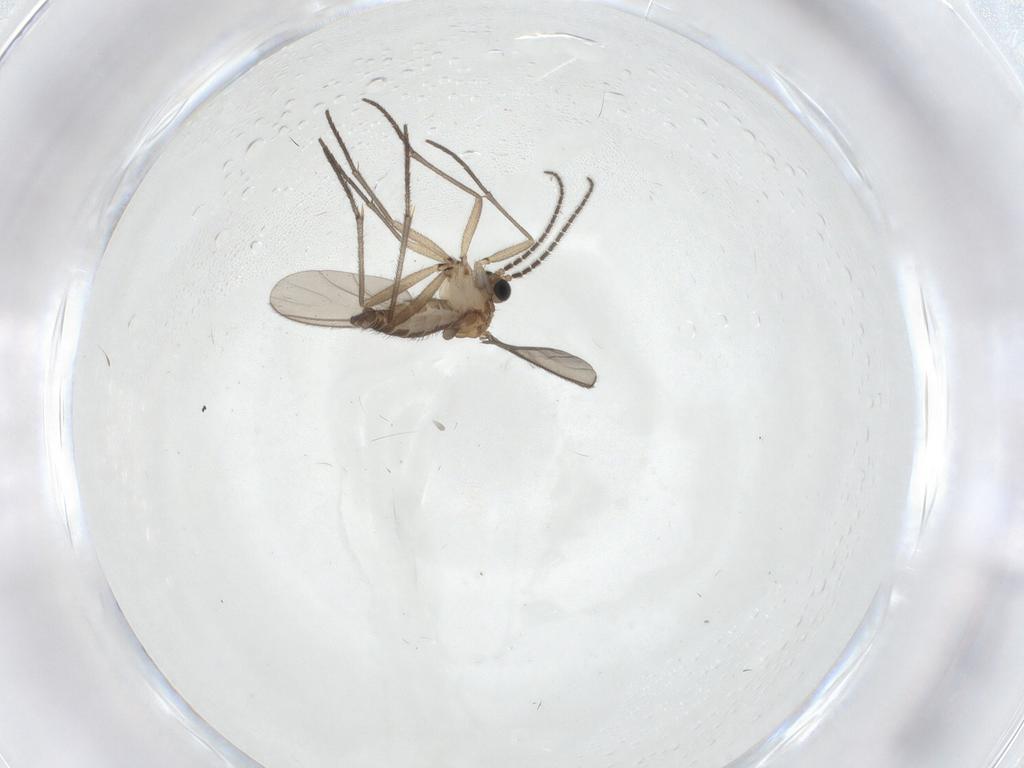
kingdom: Animalia
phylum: Arthropoda
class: Insecta
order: Diptera
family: Sciaridae
